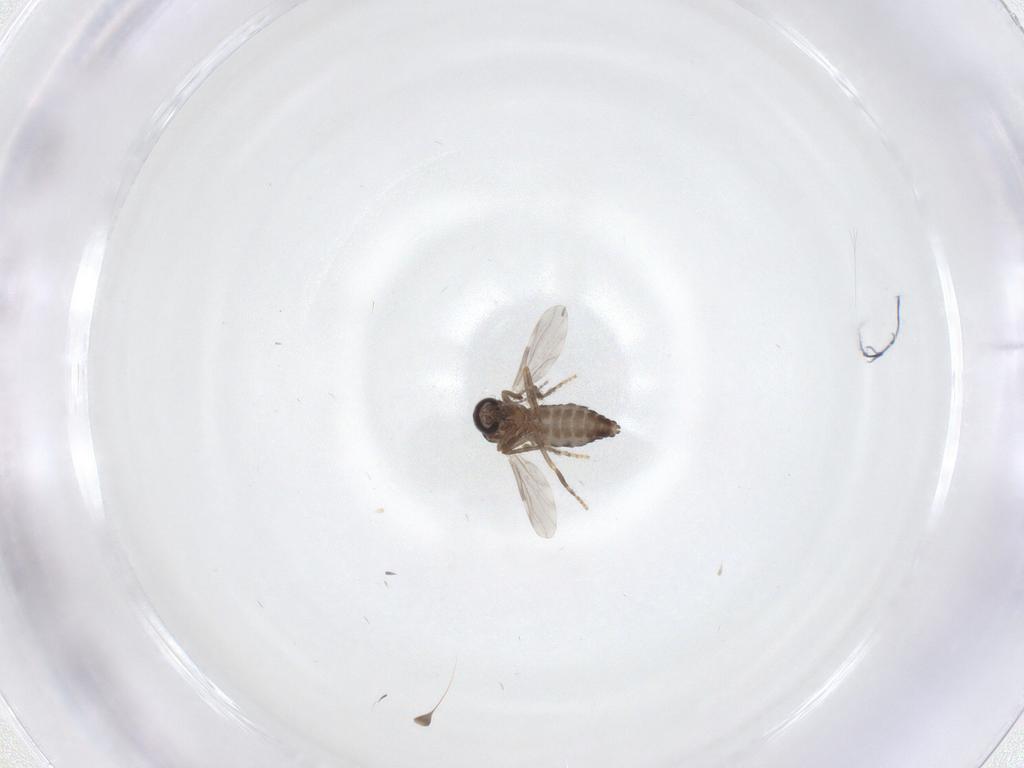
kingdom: Animalia
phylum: Arthropoda
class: Insecta
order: Diptera
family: Ceratopogonidae
